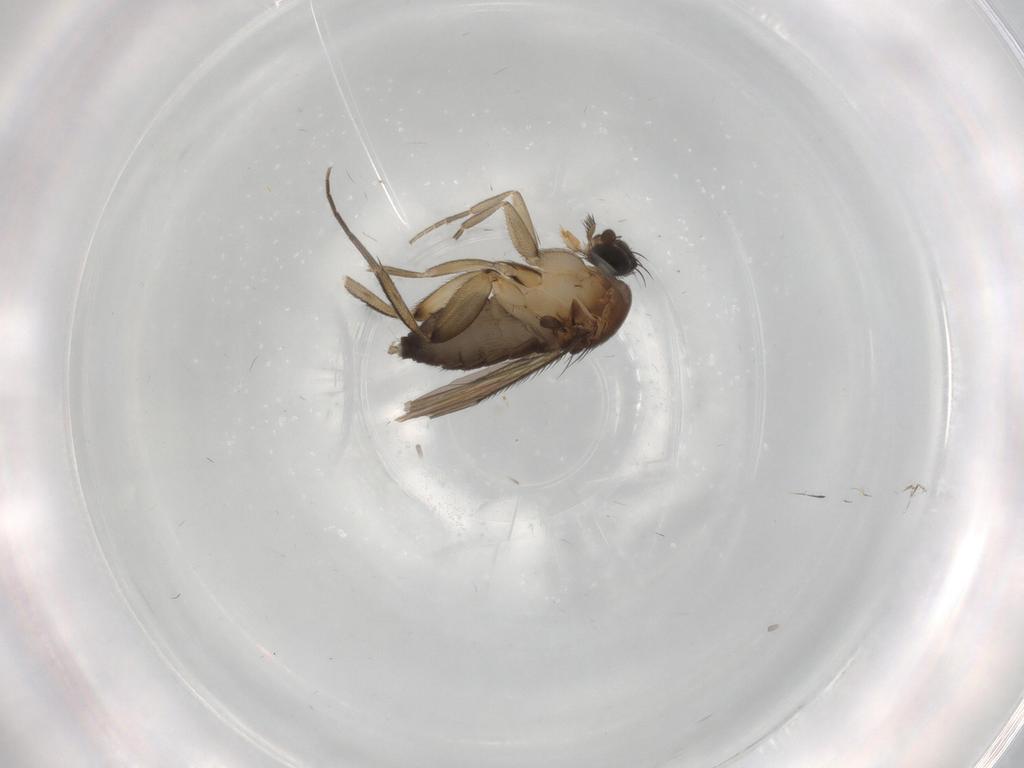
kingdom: Animalia
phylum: Arthropoda
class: Insecta
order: Diptera
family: Phoridae
